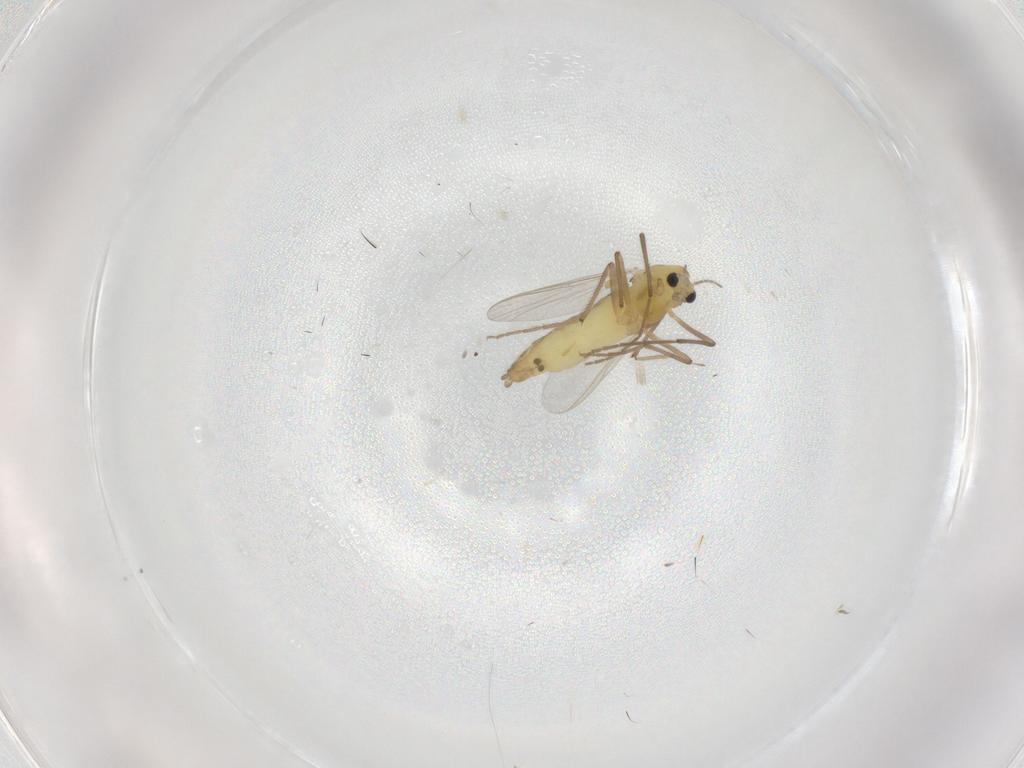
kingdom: Animalia
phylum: Arthropoda
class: Insecta
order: Diptera
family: Chironomidae
